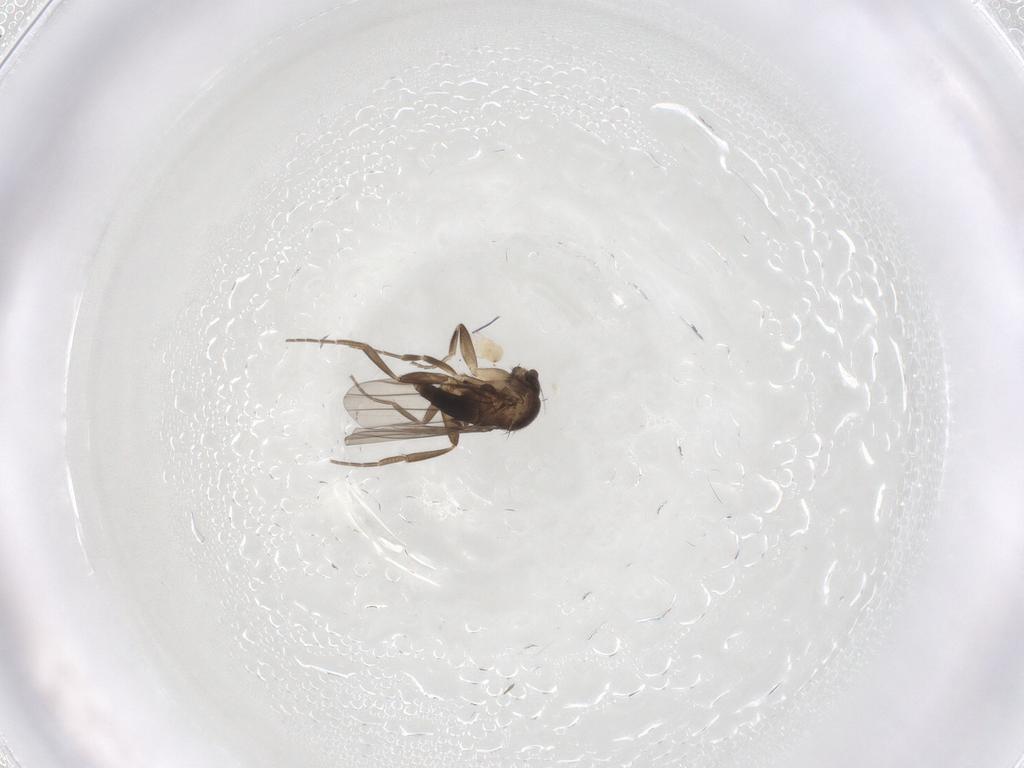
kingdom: Animalia
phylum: Arthropoda
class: Insecta
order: Diptera
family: Phoridae
